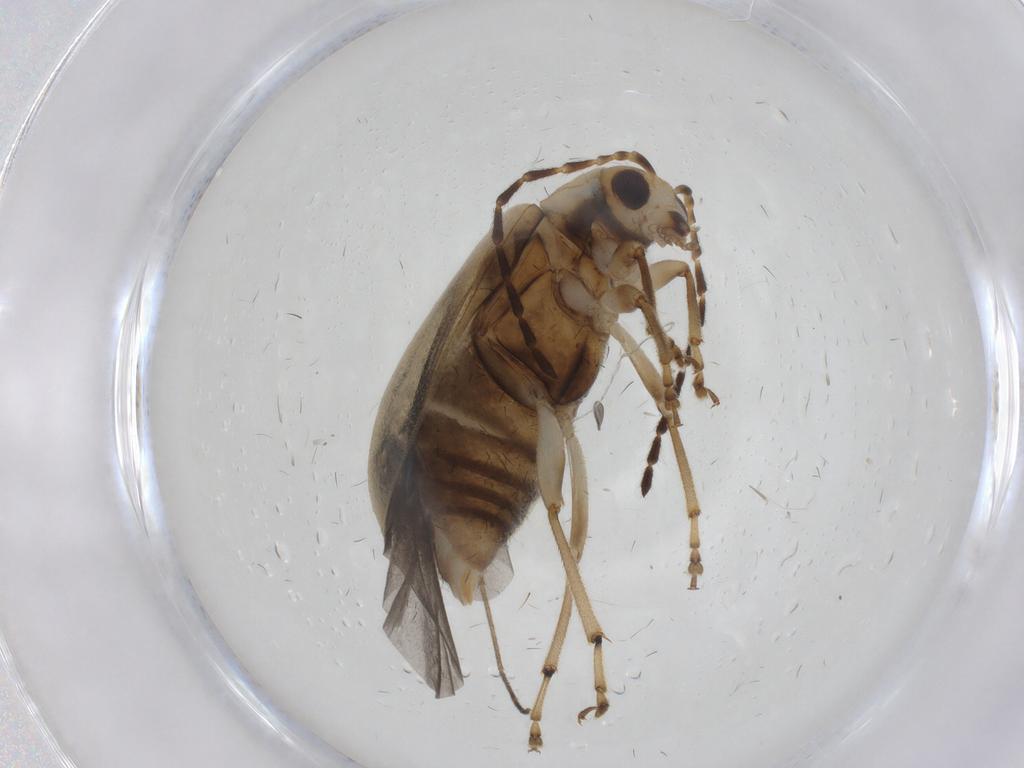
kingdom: Animalia
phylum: Arthropoda
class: Insecta
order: Coleoptera
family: Chrysomelidae
